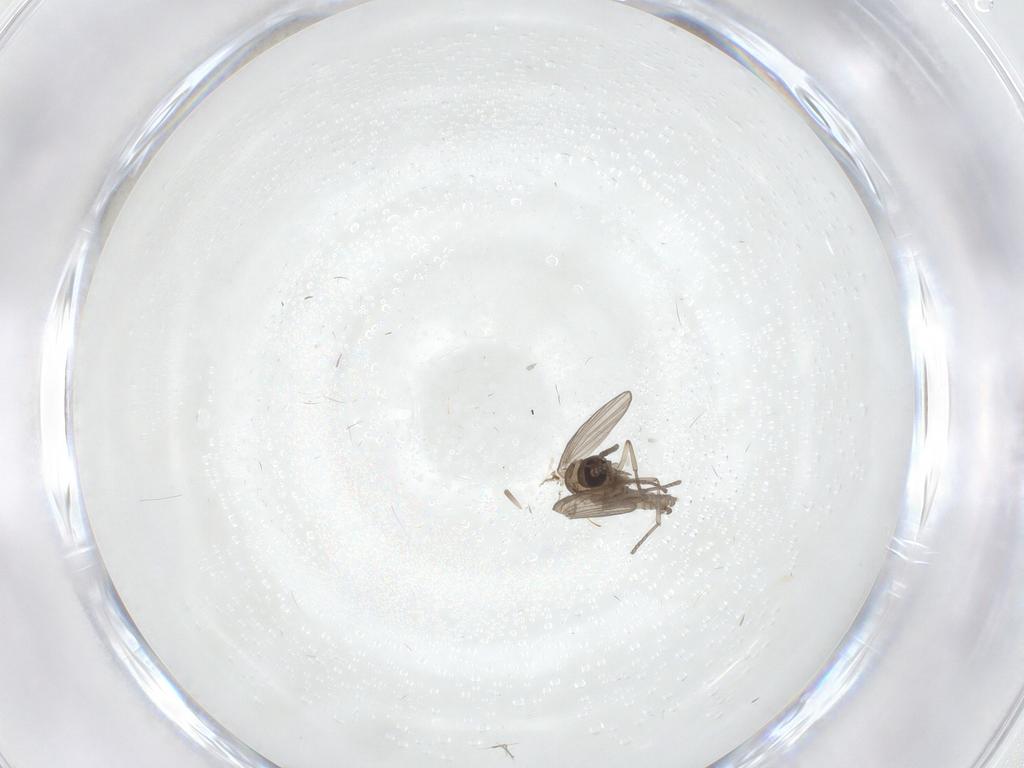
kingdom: Animalia
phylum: Arthropoda
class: Insecta
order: Diptera
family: Psychodidae
